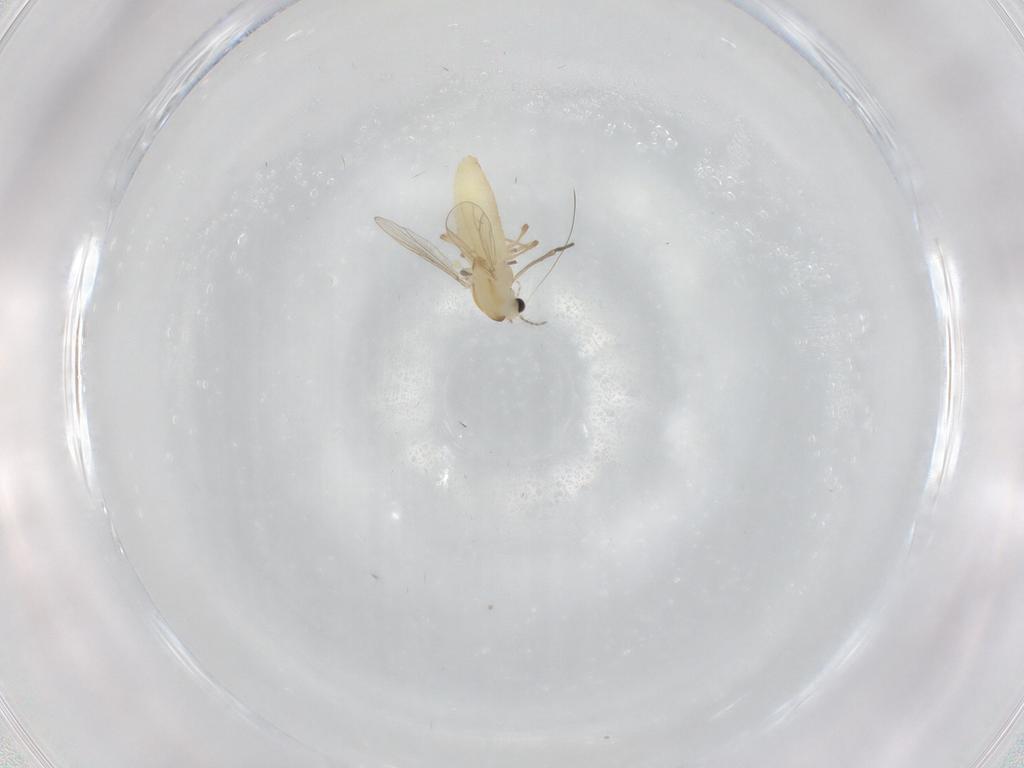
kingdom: Animalia
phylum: Arthropoda
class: Insecta
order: Diptera
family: Chironomidae
